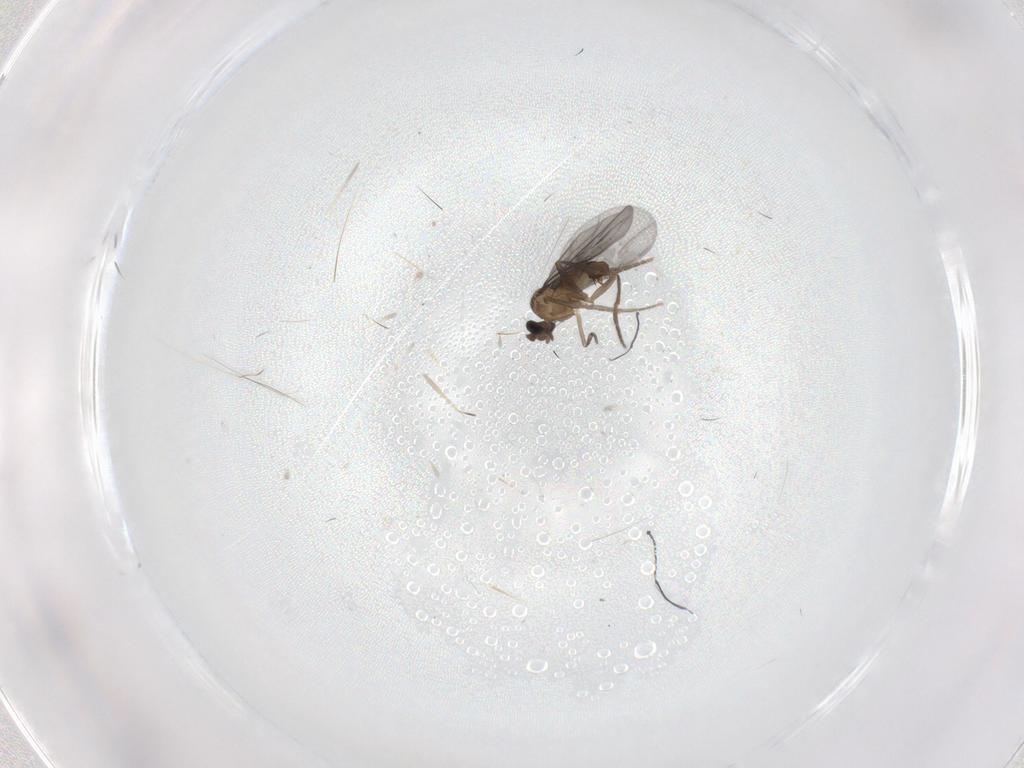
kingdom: Animalia
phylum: Arthropoda
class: Insecta
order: Diptera
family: Phoridae
